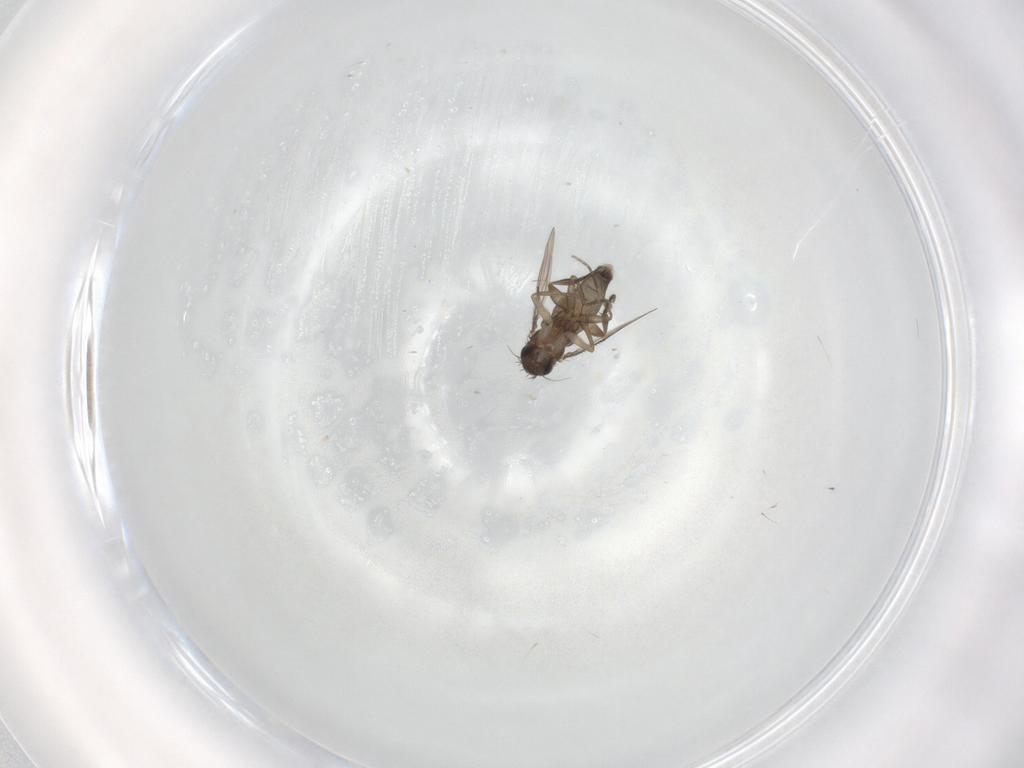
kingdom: Animalia
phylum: Arthropoda
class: Insecta
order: Diptera
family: Phoridae
